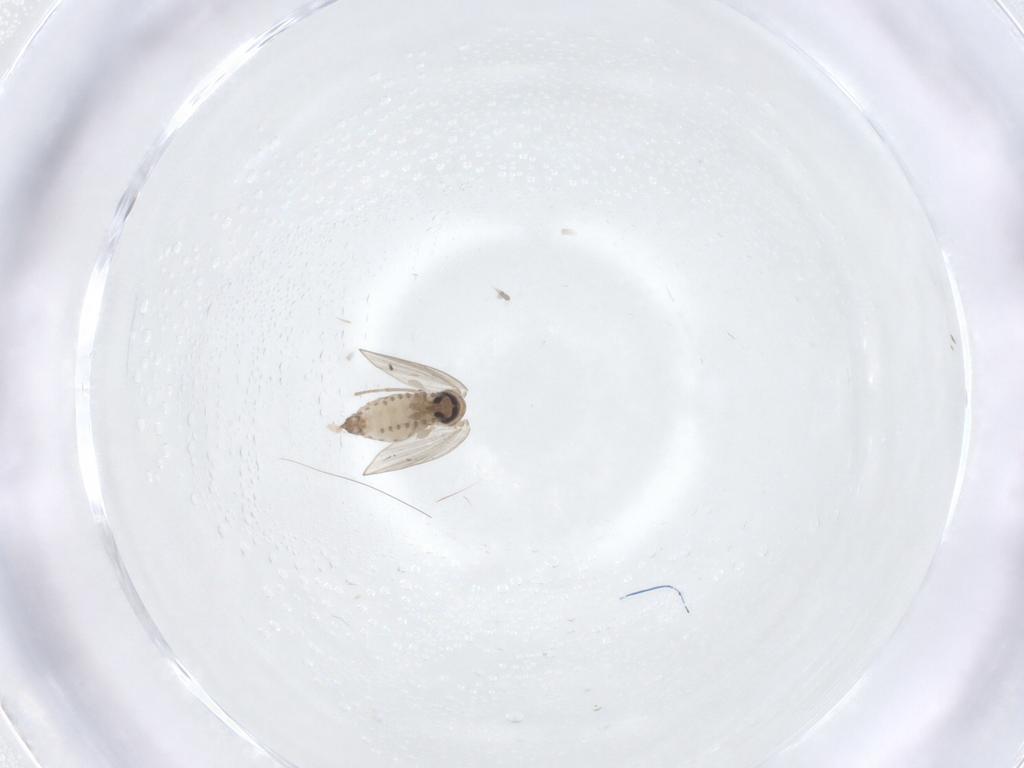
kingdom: Animalia
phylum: Arthropoda
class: Insecta
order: Diptera
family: Psychodidae
